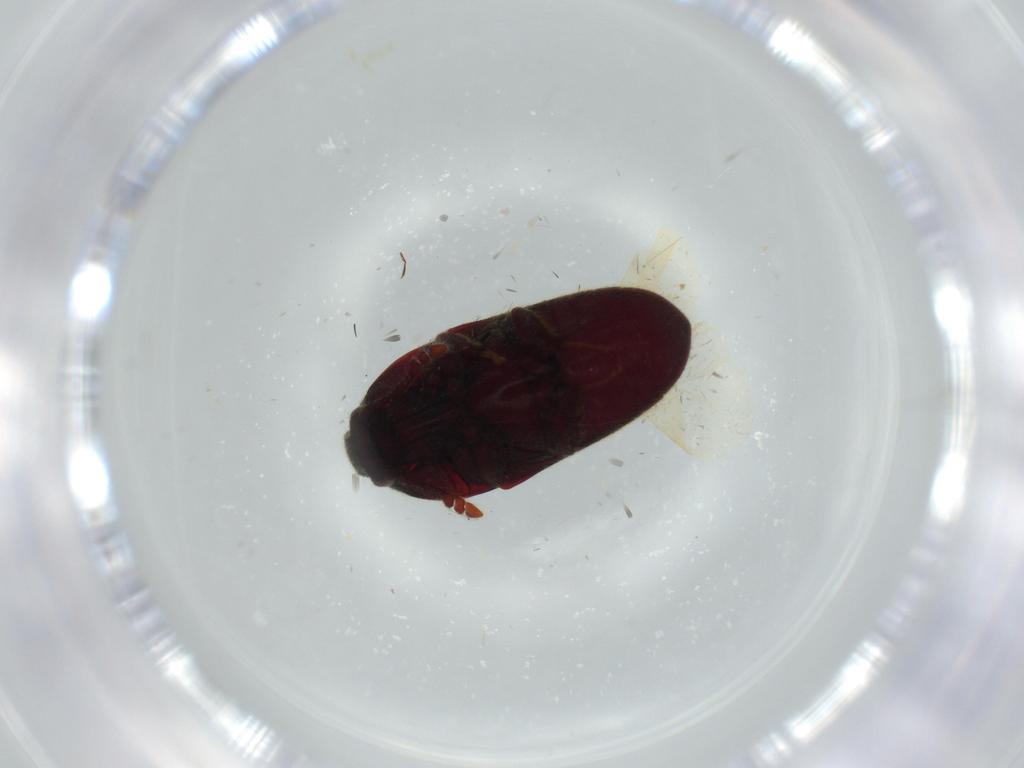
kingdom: Animalia
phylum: Arthropoda
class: Insecta
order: Coleoptera
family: Throscidae
